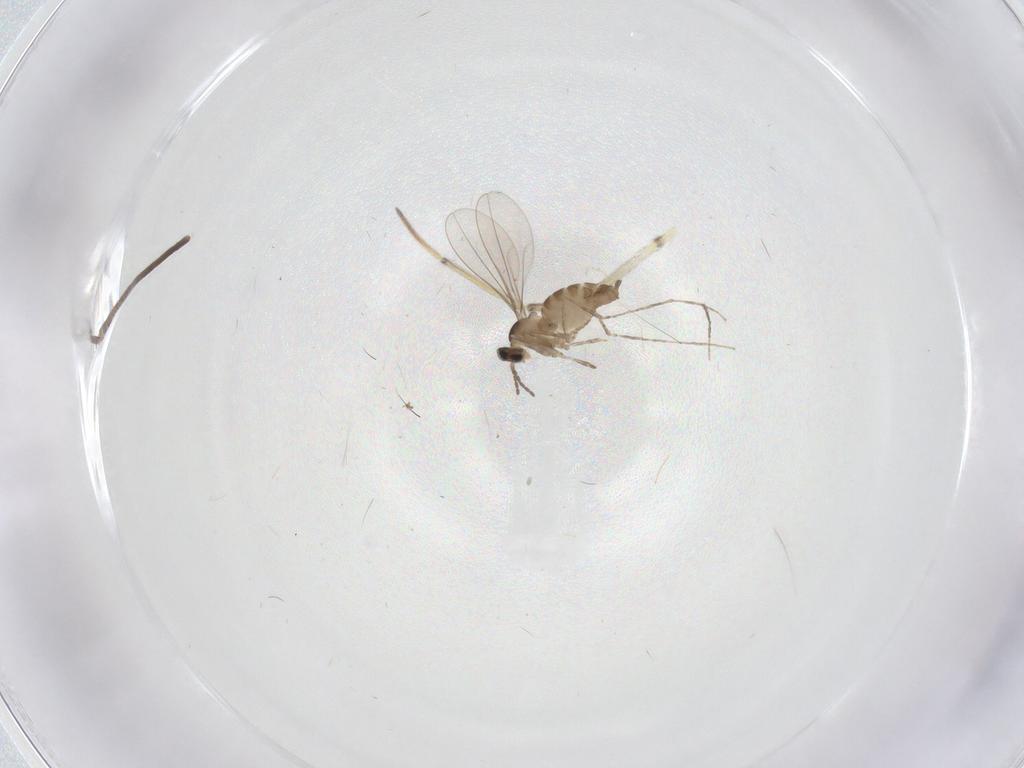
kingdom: Animalia
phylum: Arthropoda
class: Insecta
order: Diptera
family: Limoniidae
